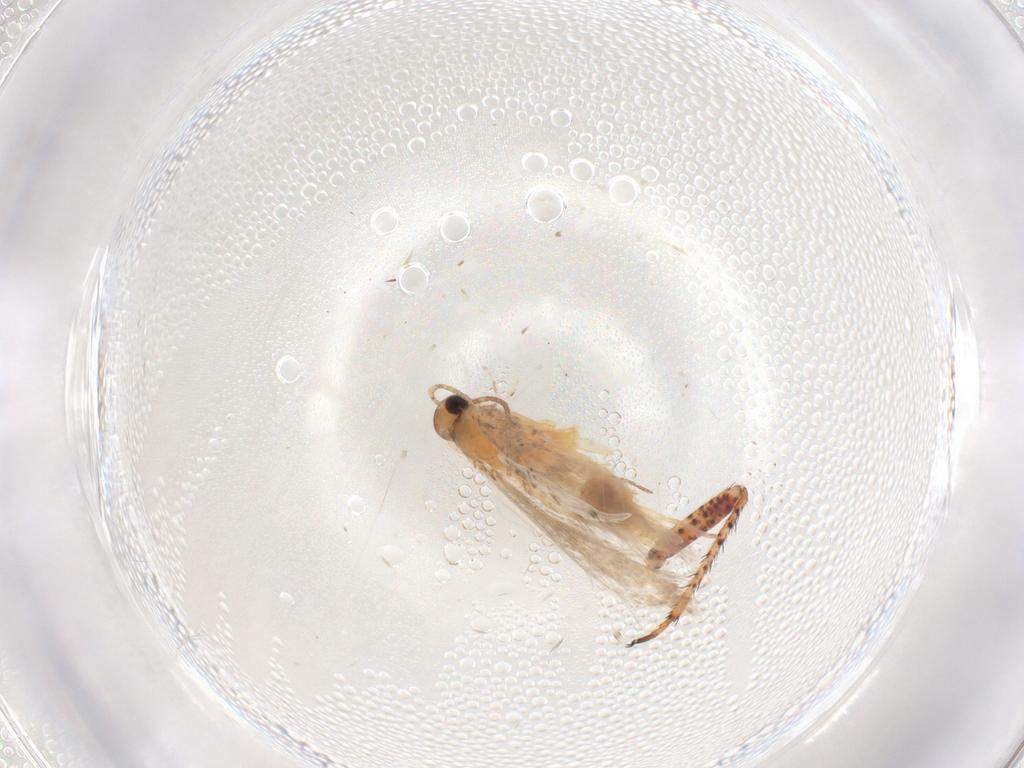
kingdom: Animalia
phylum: Arthropoda
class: Insecta
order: Lepidoptera
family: Gelechiidae
